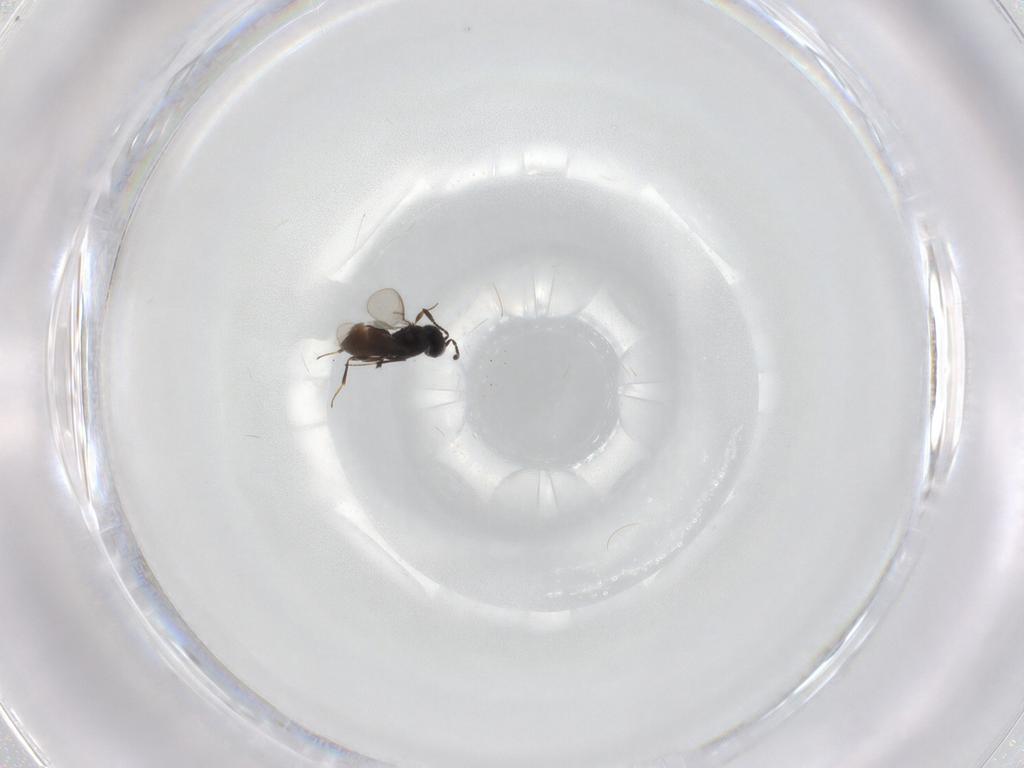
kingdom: Animalia
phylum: Arthropoda
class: Insecta
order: Hymenoptera
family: Scelionidae
